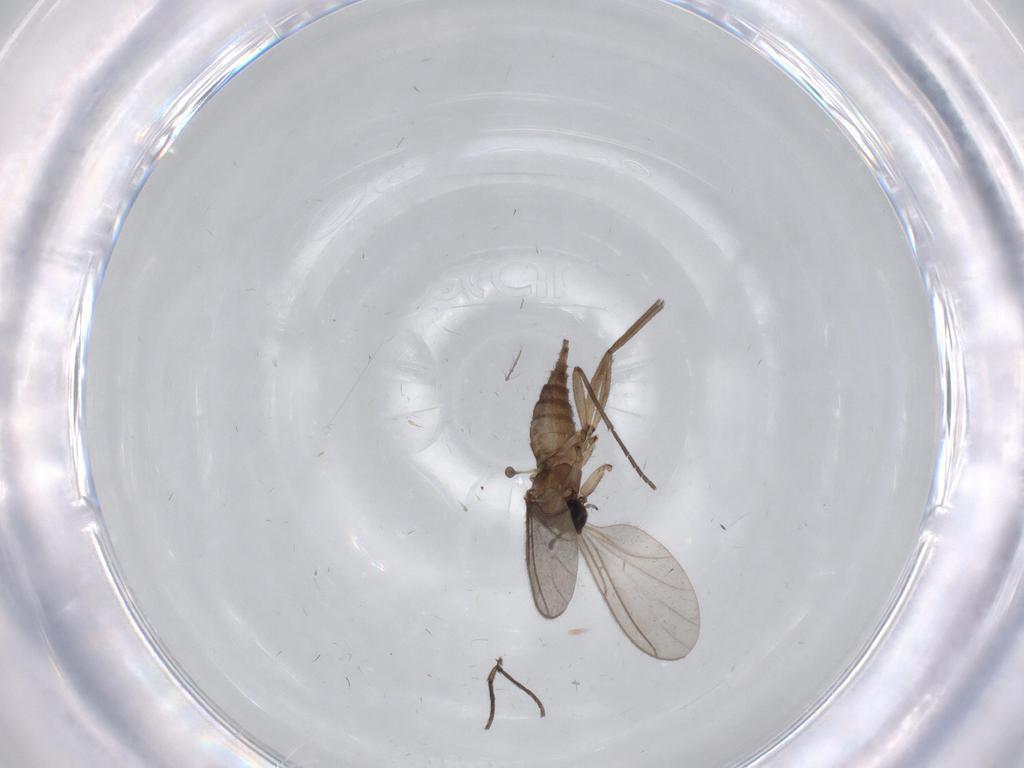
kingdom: Animalia
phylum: Arthropoda
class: Insecta
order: Diptera
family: Sciaridae
